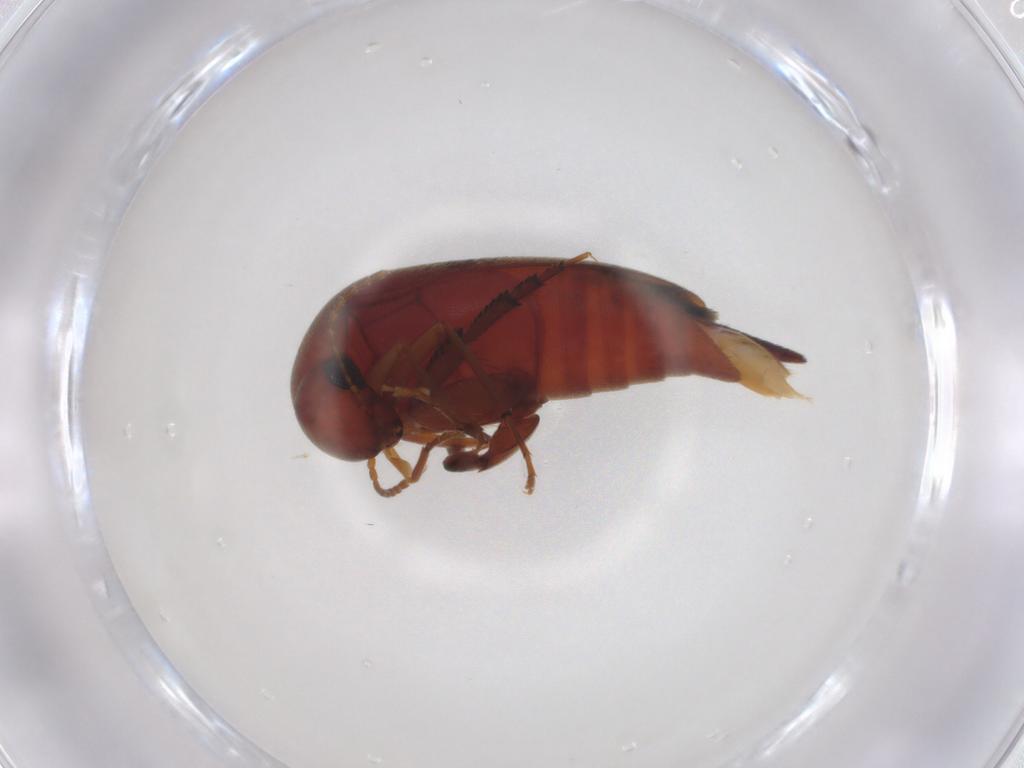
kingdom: Animalia
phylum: Arthropoda
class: Insecta
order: Coleoptera
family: Mordellidae
